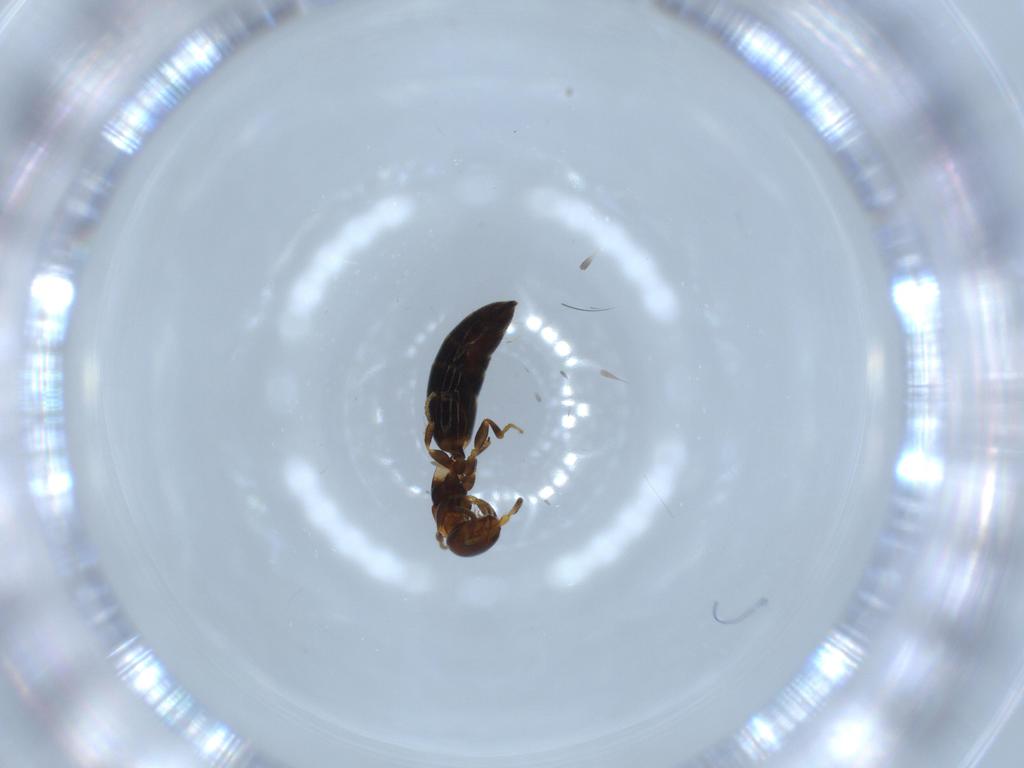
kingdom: Animalia
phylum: Arthropoda
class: Insecta
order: Hymenoptera
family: Bethylidae
